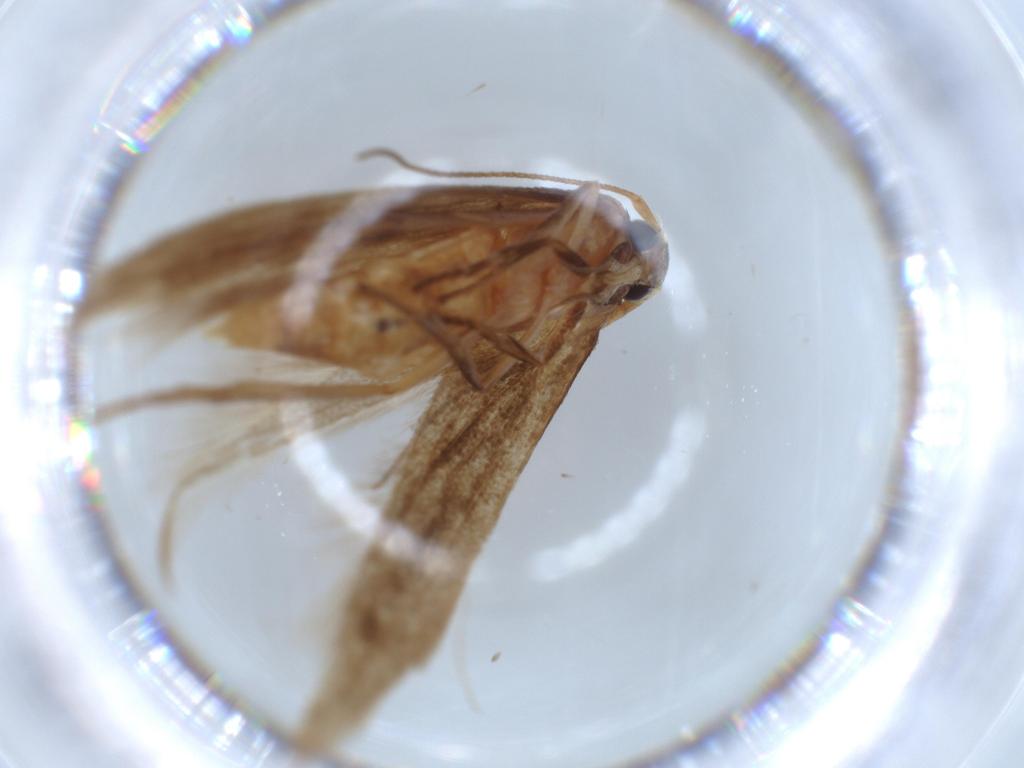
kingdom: Animalia
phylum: Arthropoda
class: Insecta
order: Lepidoptera
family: Stathmopodidae
